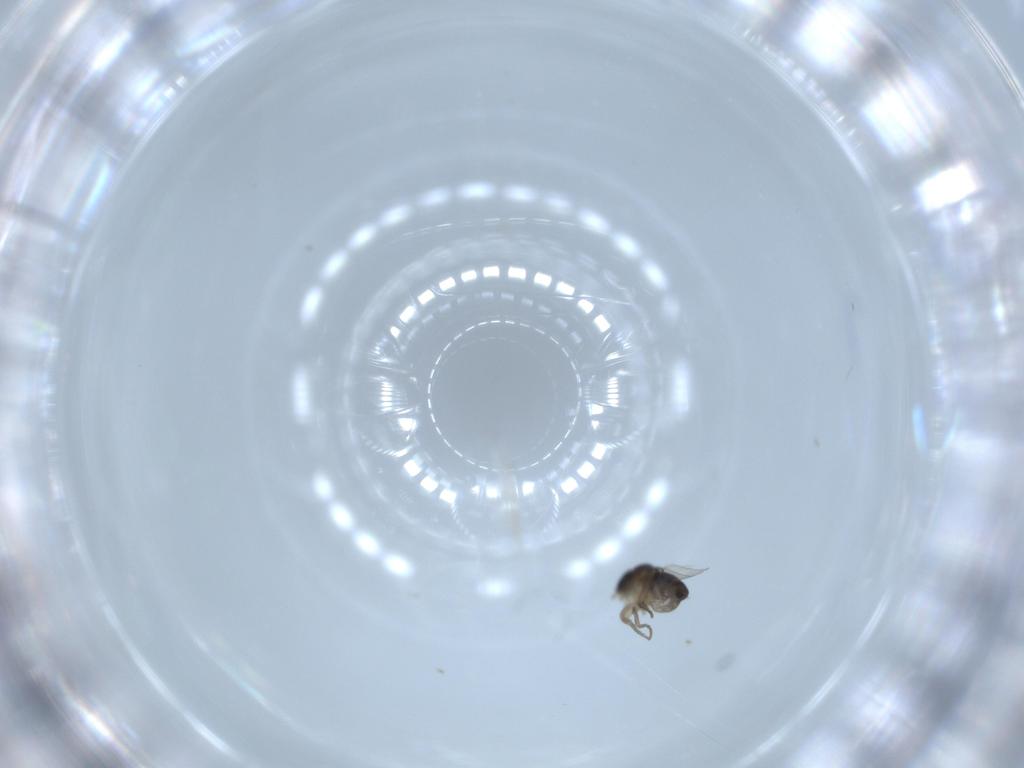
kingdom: Animalia
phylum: Arthropoda
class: Insecta
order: Diptera
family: Phoridae
